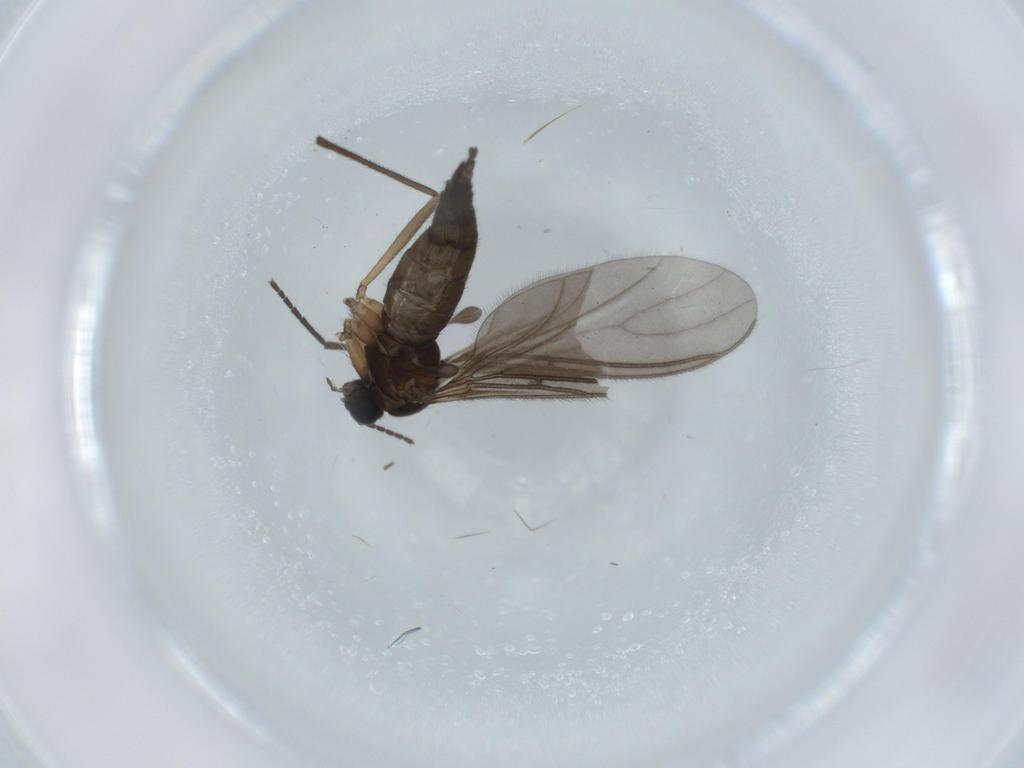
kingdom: Animalia
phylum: Arthropoda
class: Insecta
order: Diptera
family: Sciaridae
